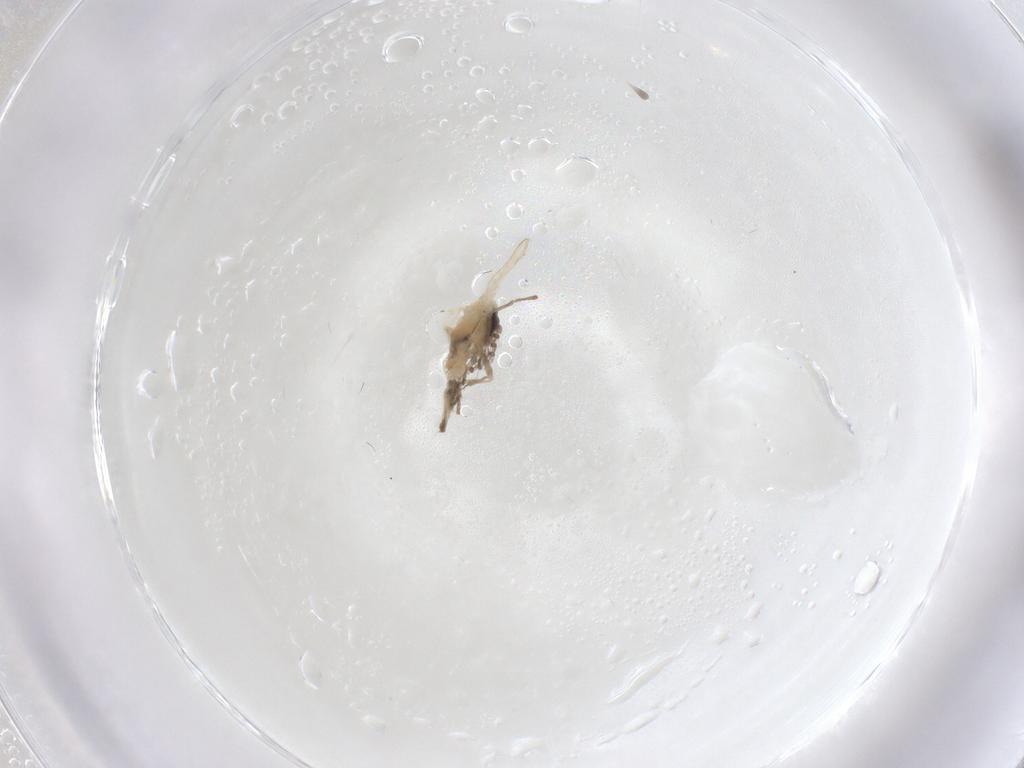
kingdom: Animalia
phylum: Arthropoda
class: Insecta
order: Diptera
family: Psychodidae
